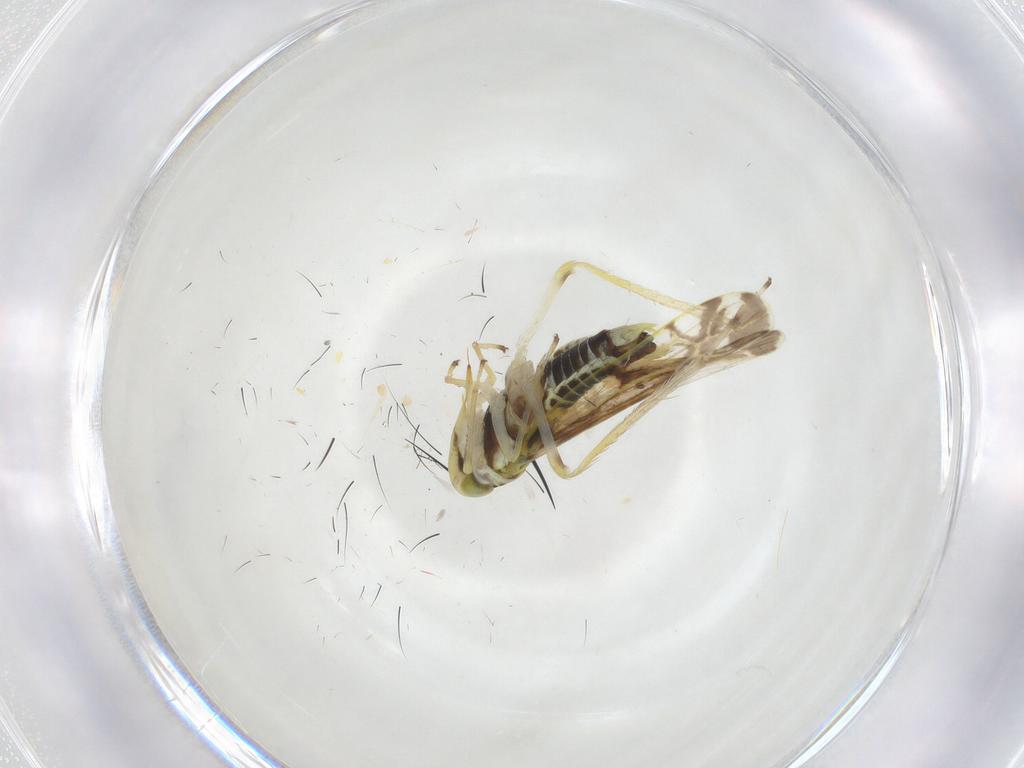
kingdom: Animalia
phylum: Arthropoda
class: Insecta
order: Hemiptera
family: Cicadellidae
